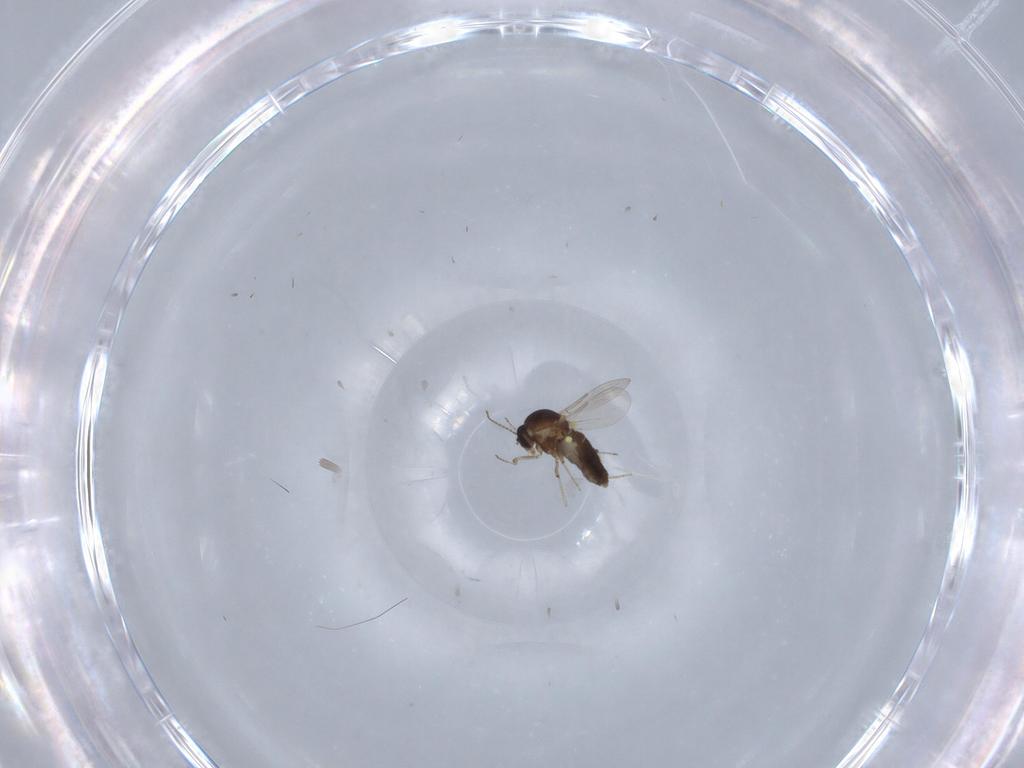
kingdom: Animalia
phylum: Arthropoda
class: Insecta
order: Diptera
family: Ceratopogonidae
